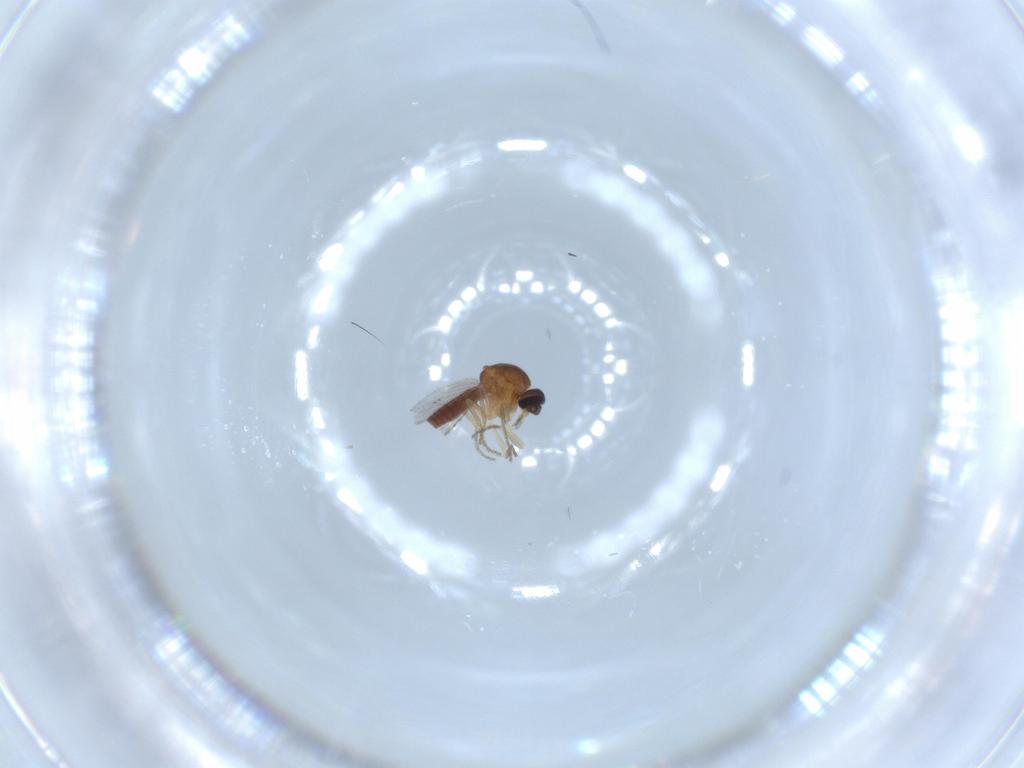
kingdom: Animalia
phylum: Arthropoda
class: Insecta
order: Diptera
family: Ceratopogonidae
